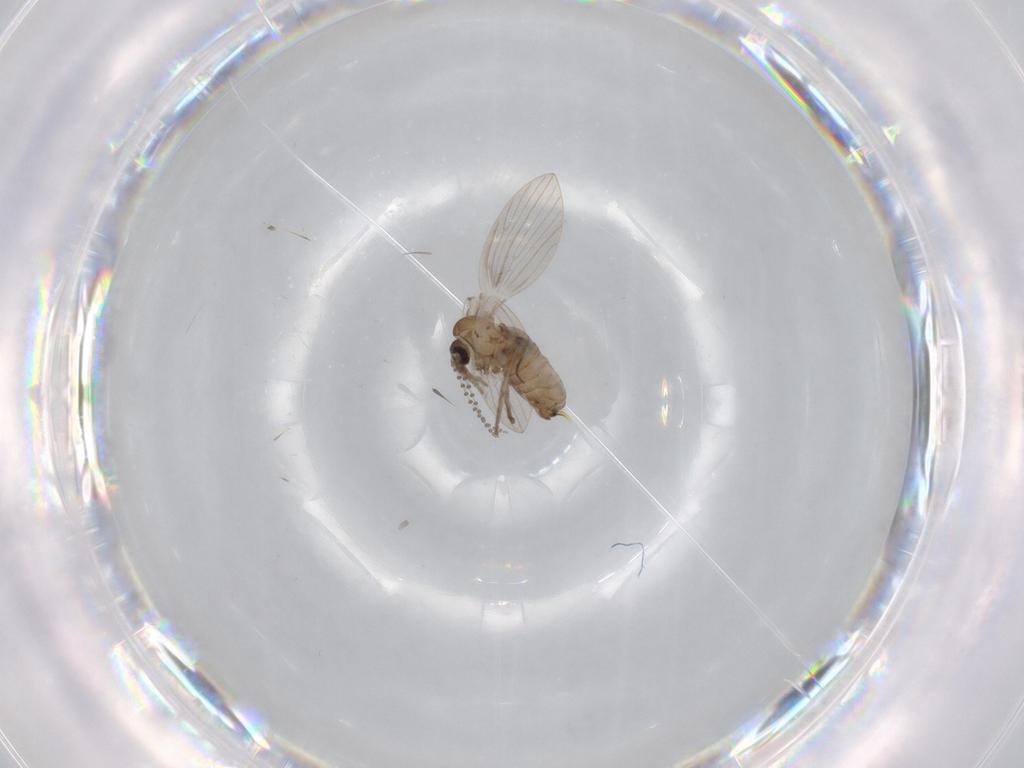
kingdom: Animalia
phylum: Arthropoda
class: Insecta
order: Diptera
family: Psychodidae
